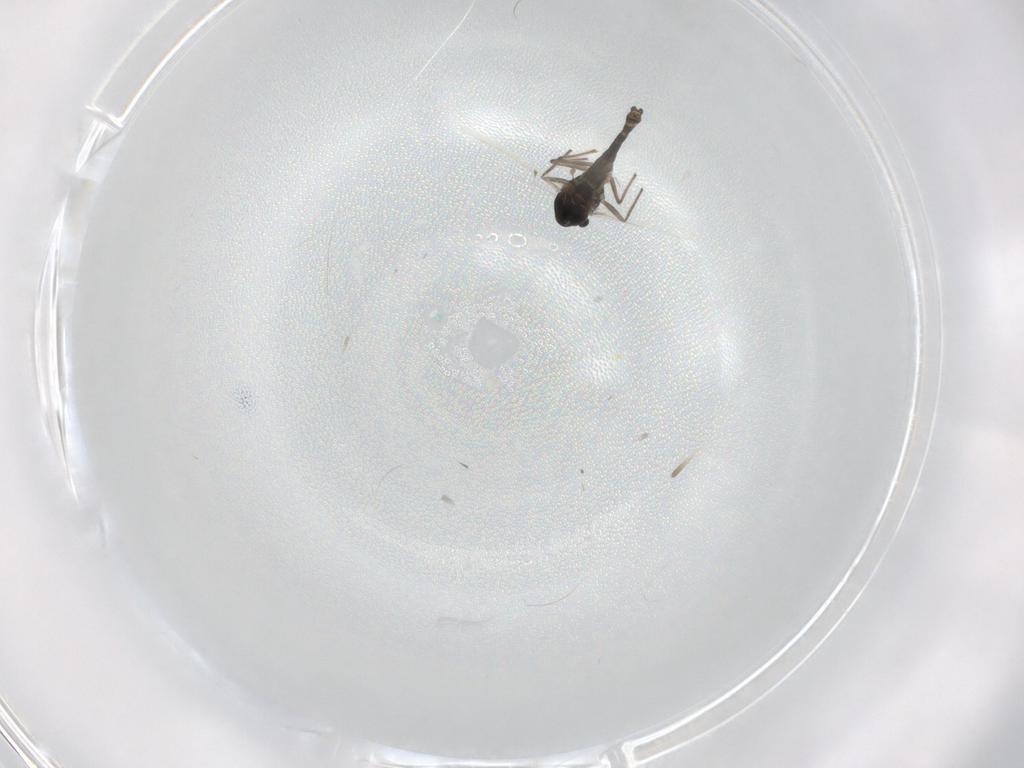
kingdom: Animalia
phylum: Arthropoda
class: Insecta
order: Diptera
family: Chironomidae
